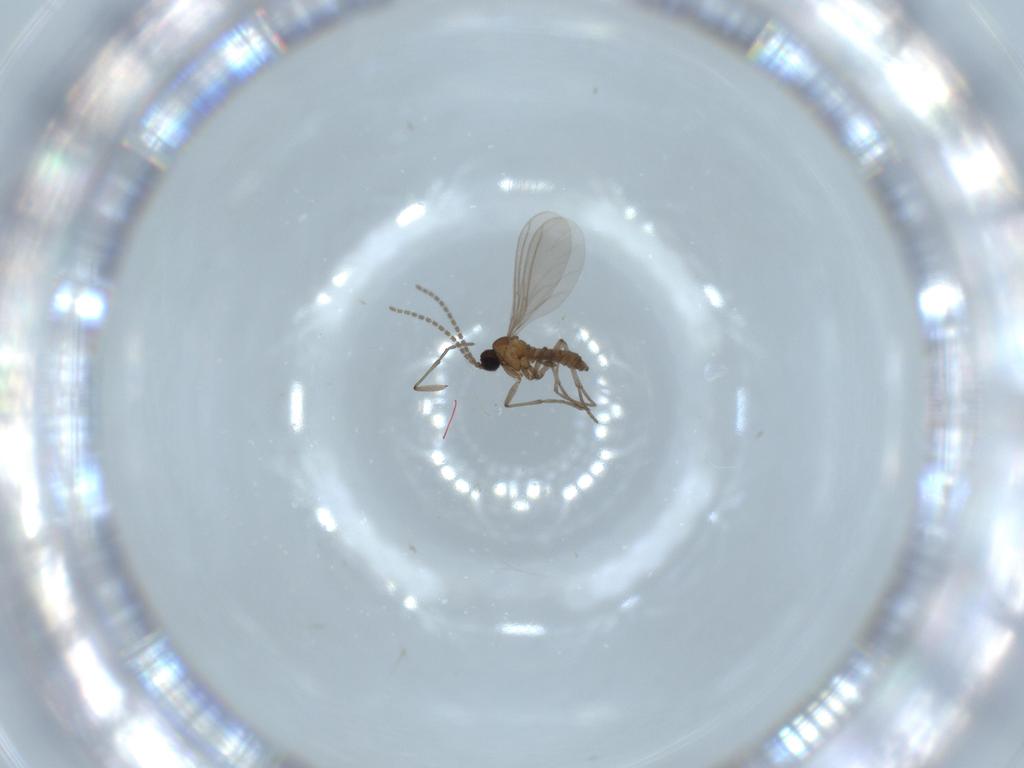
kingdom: Animalia
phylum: Arthropoda
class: Insecta
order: Diptera
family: Sciaridae
